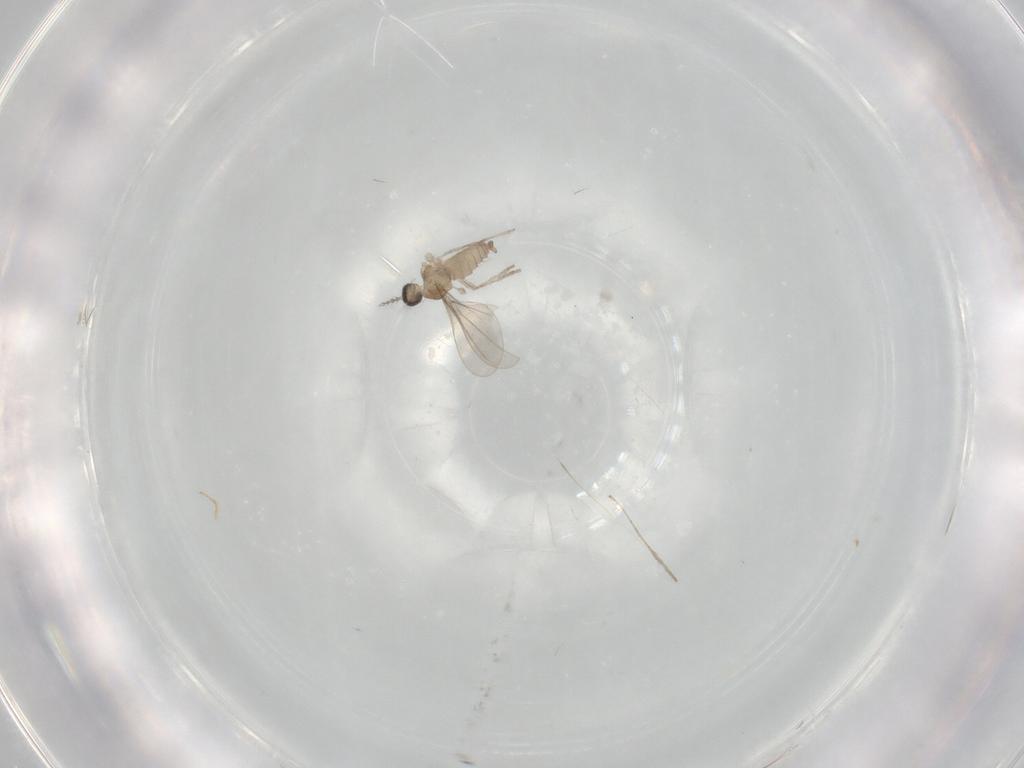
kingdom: Animalia
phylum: Arthropoda
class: Insecta
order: Diptera
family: Cecidomyiidae
